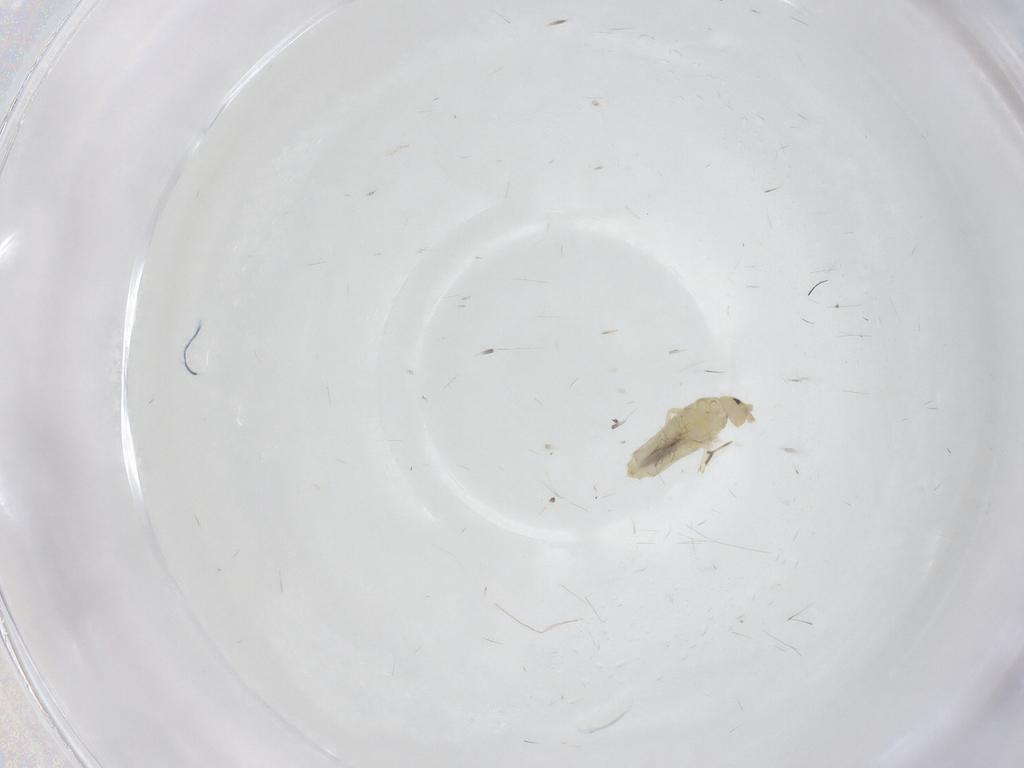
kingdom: Animalia
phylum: Arthropoda
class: Collembola
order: Entomobryomorpha
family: Entomobryidae
